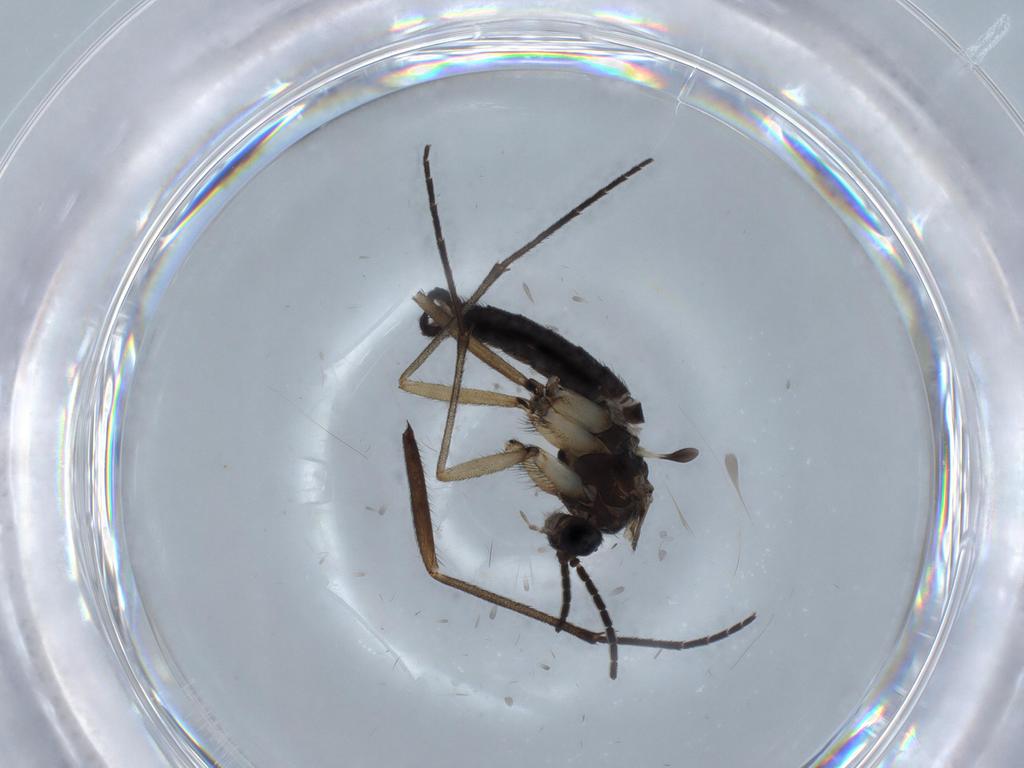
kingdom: Animalia
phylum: Arthropoda
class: Insecta
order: Diptera
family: Sciaridae
